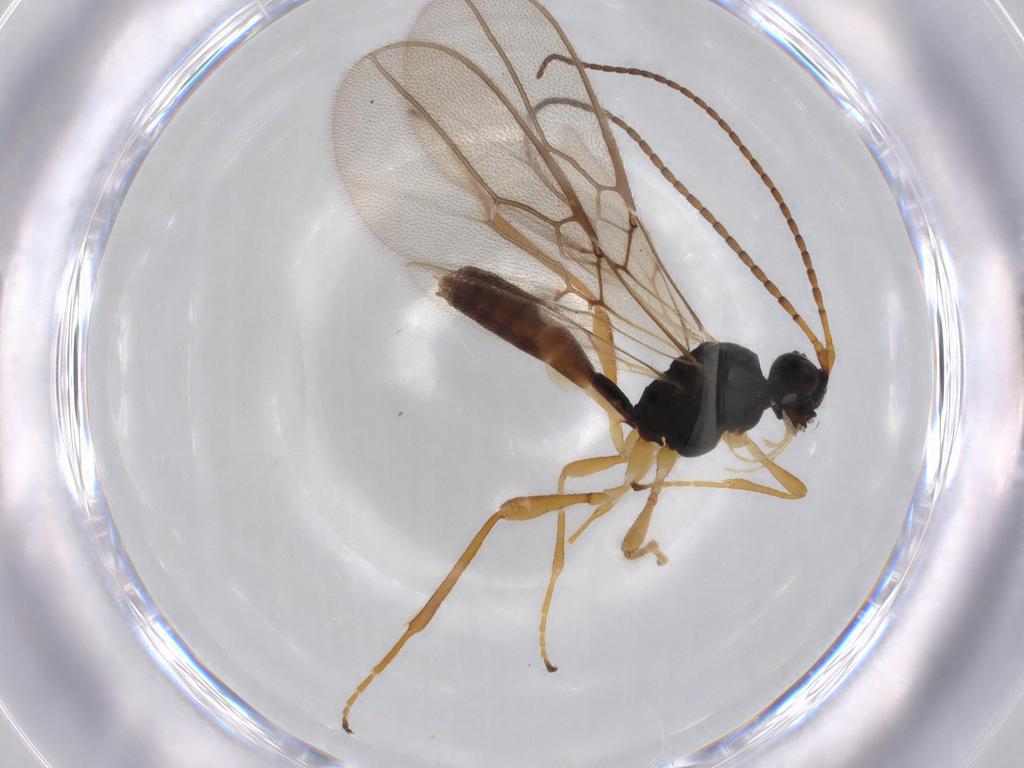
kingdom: Animalia
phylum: Arthropoda
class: Insecta
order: Hymenoptera
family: Braconidae
